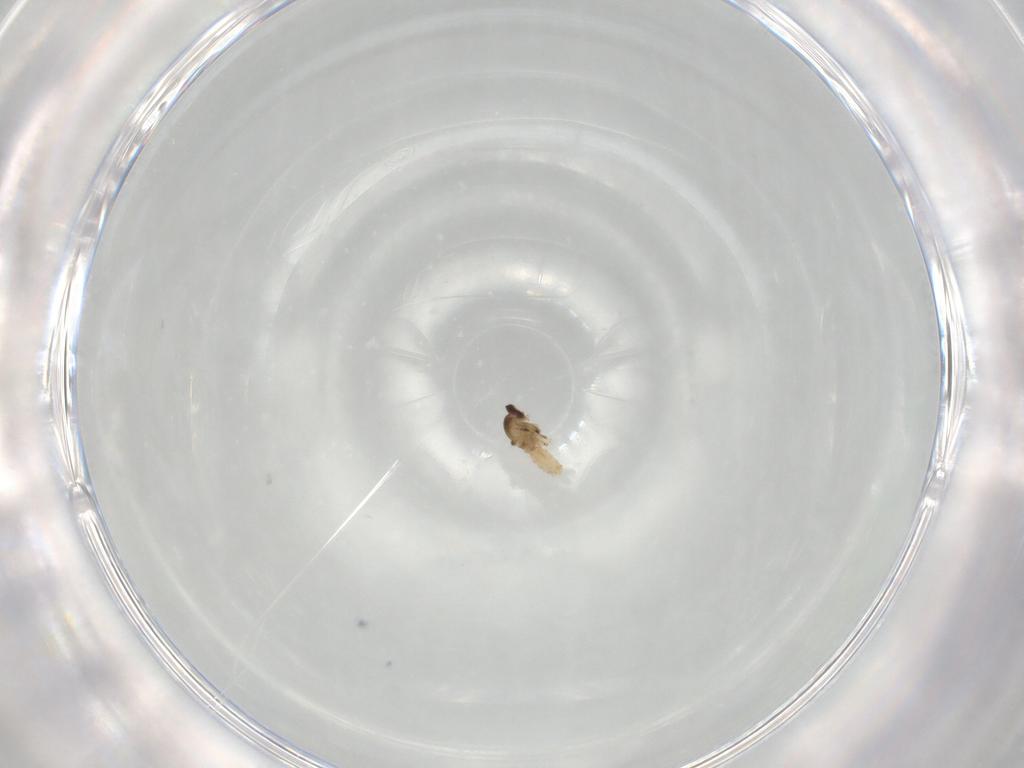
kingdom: Animalia
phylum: Arthropoda
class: Insecta
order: Diptera
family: Cecidomyiidae
